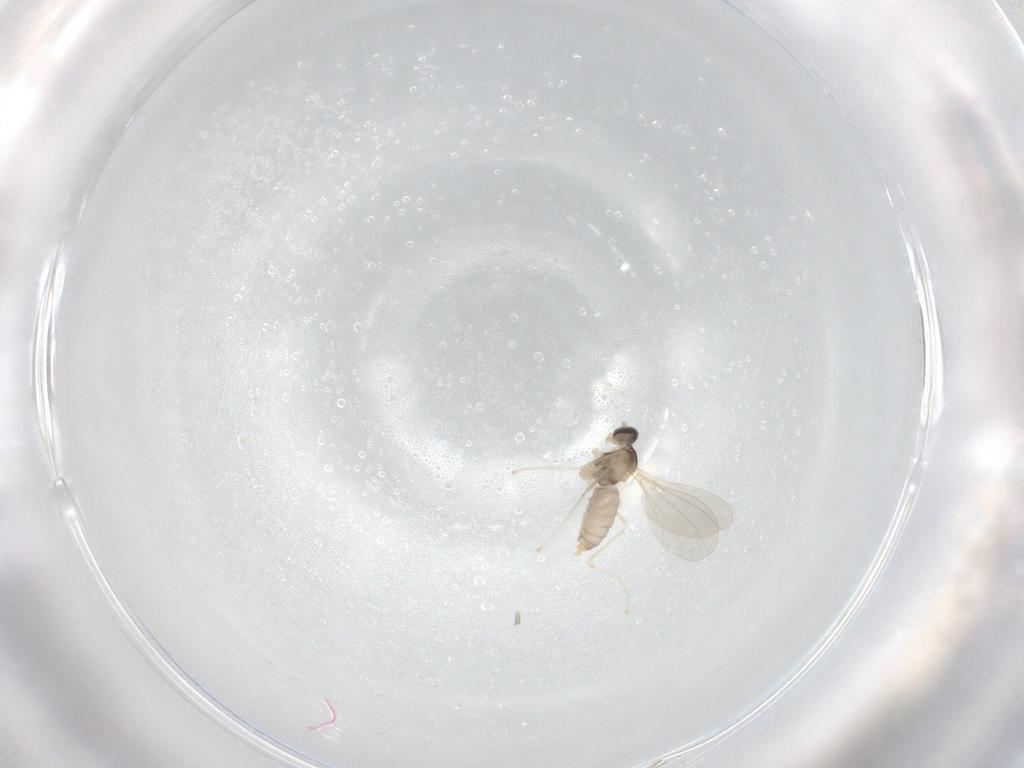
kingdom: Animalia
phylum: Arthropoda
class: Insecta
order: Diptera
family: Cecidomyiidae
